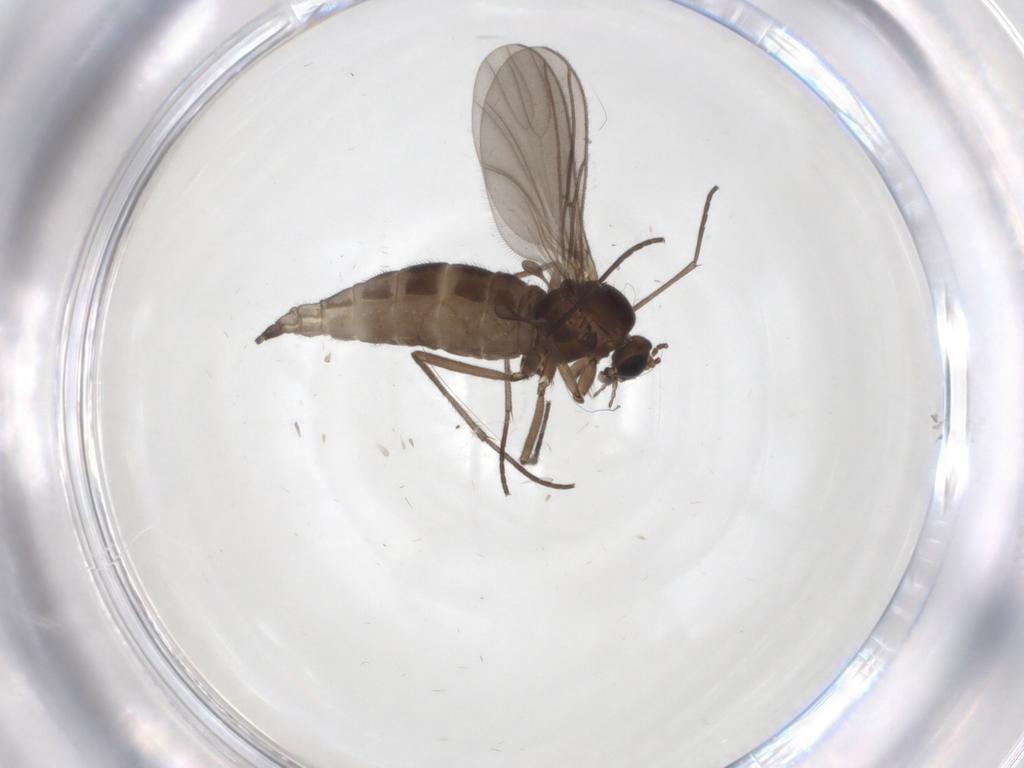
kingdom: Animalia
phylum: Arthropoda
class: Insecta
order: Diptera
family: Sciaridae
